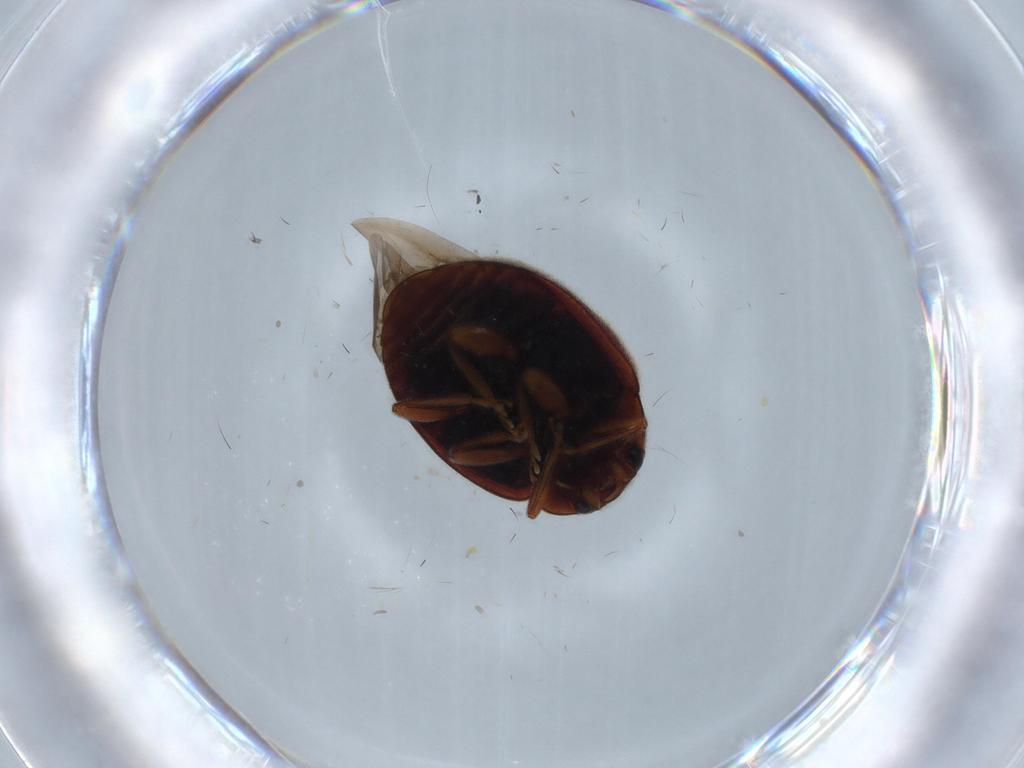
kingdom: Animalia
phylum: Arthropoda
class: Insecta
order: Coleoptera
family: Coccinellidae
